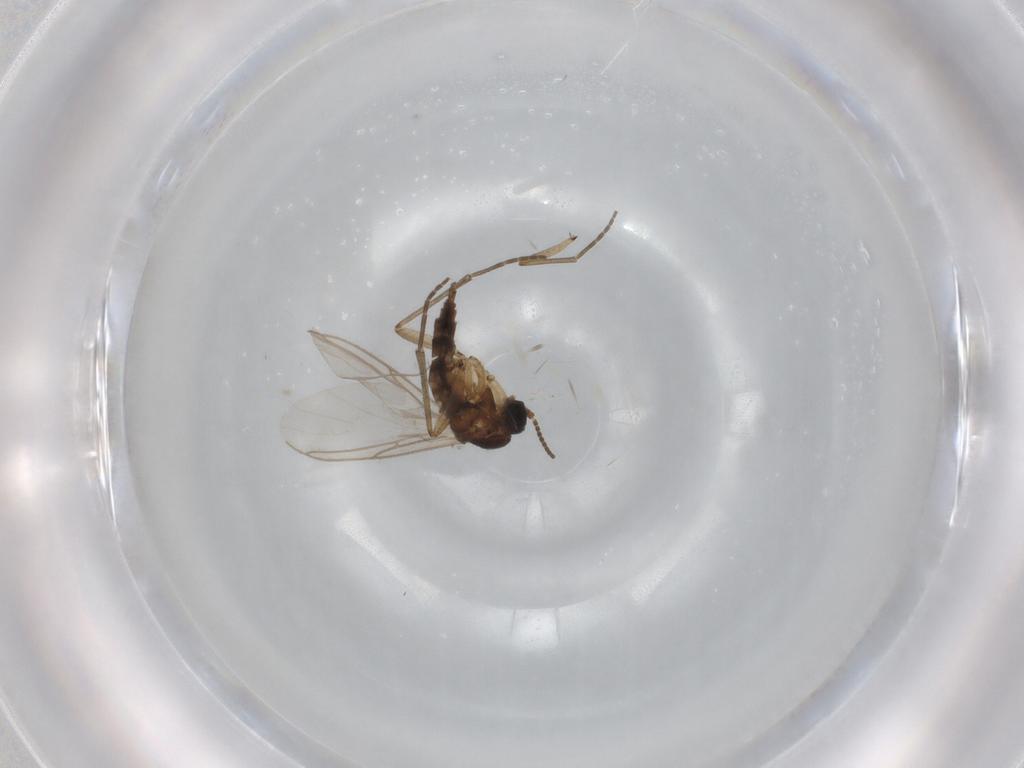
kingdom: Animalia
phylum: Arthropoda
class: Insecta
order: Diptera
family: Sciaridae
